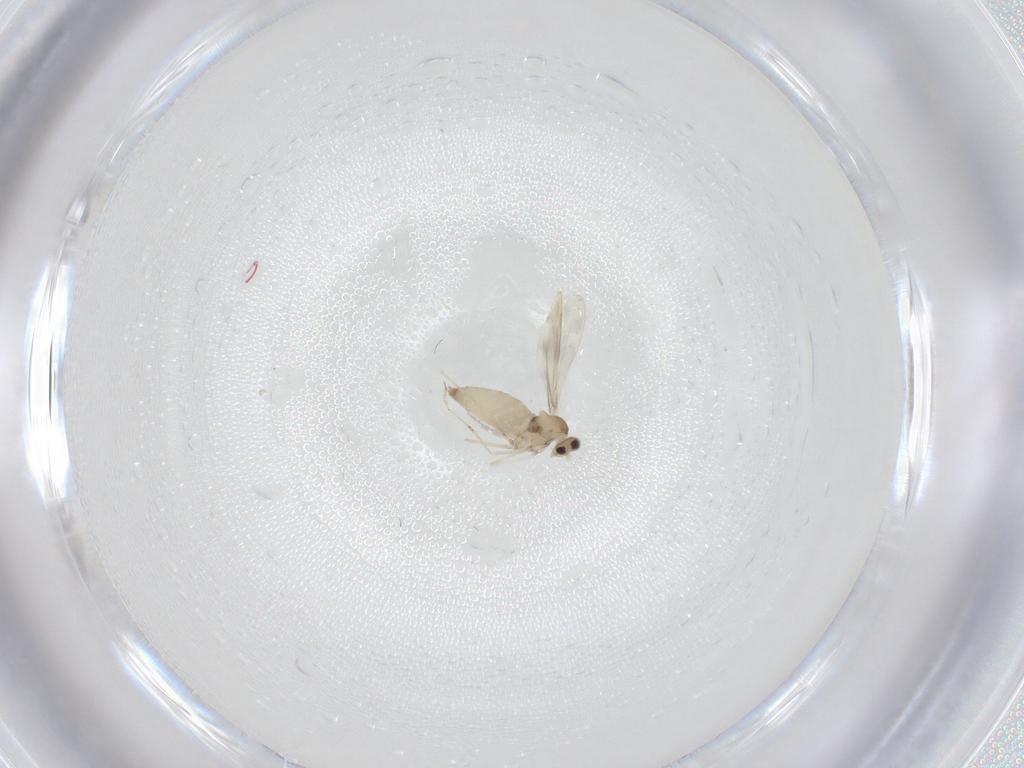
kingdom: Animalia
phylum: Arthropoda
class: Insecta
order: Diptera
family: Cecidomyiidae
